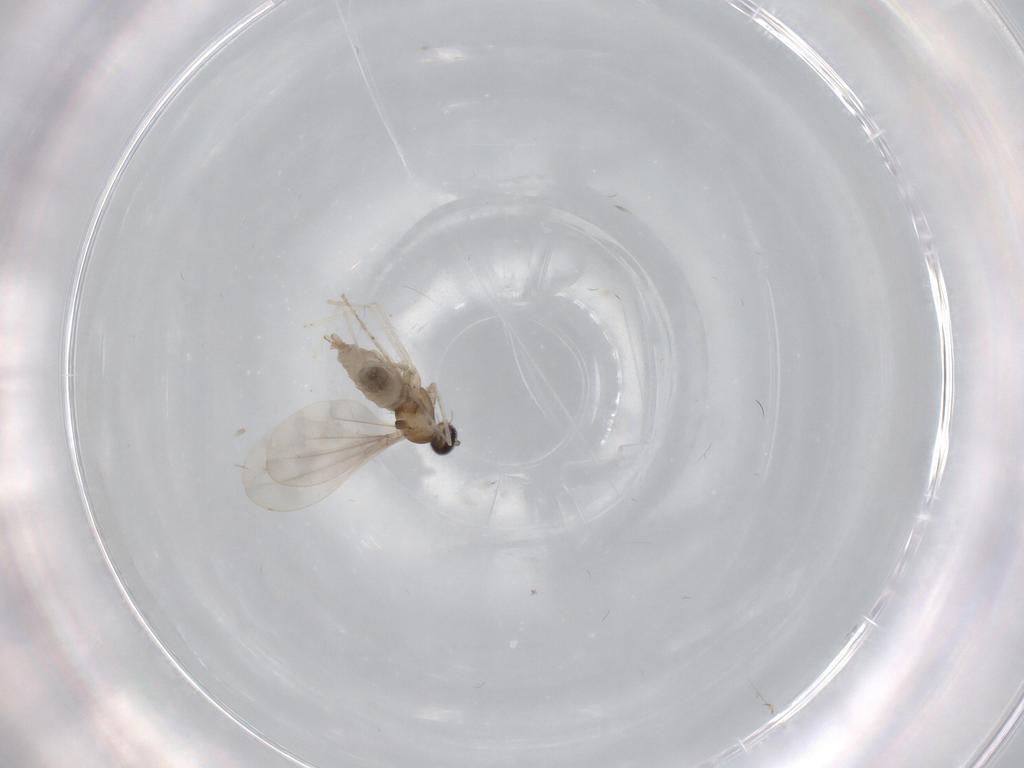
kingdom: Animalia
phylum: Arthropoda
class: Insecta
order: Diptera
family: Cecidomyiidae
